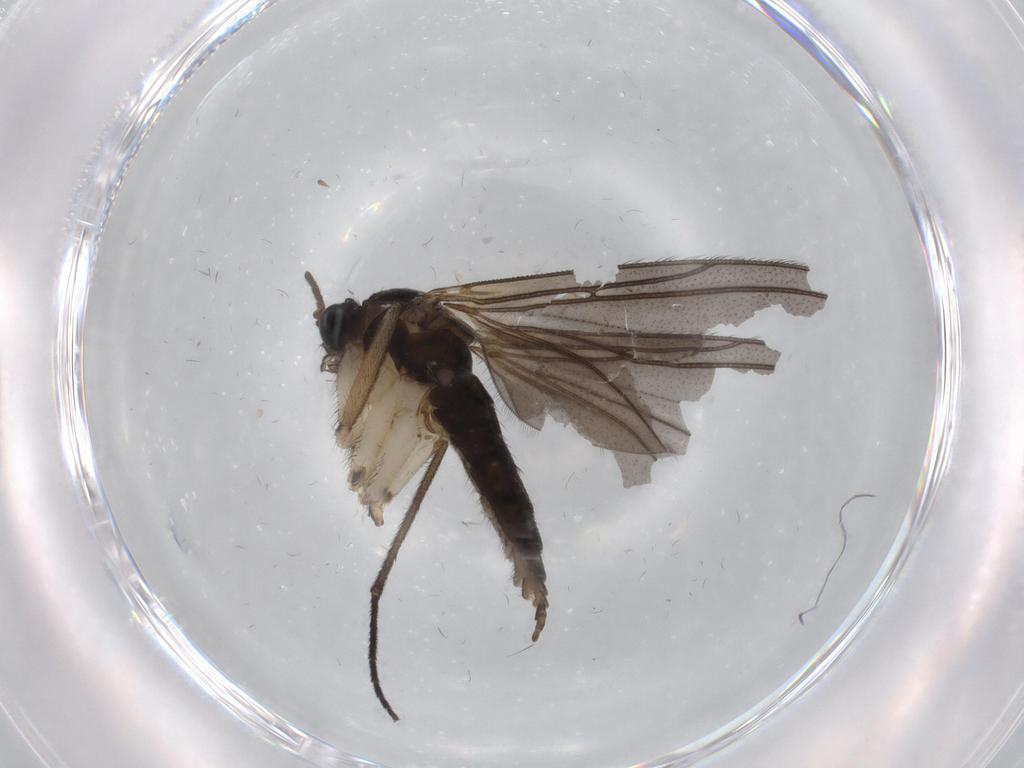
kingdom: Animalia
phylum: Arthropoda
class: Insecta
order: Diptera
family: Sciaridae
